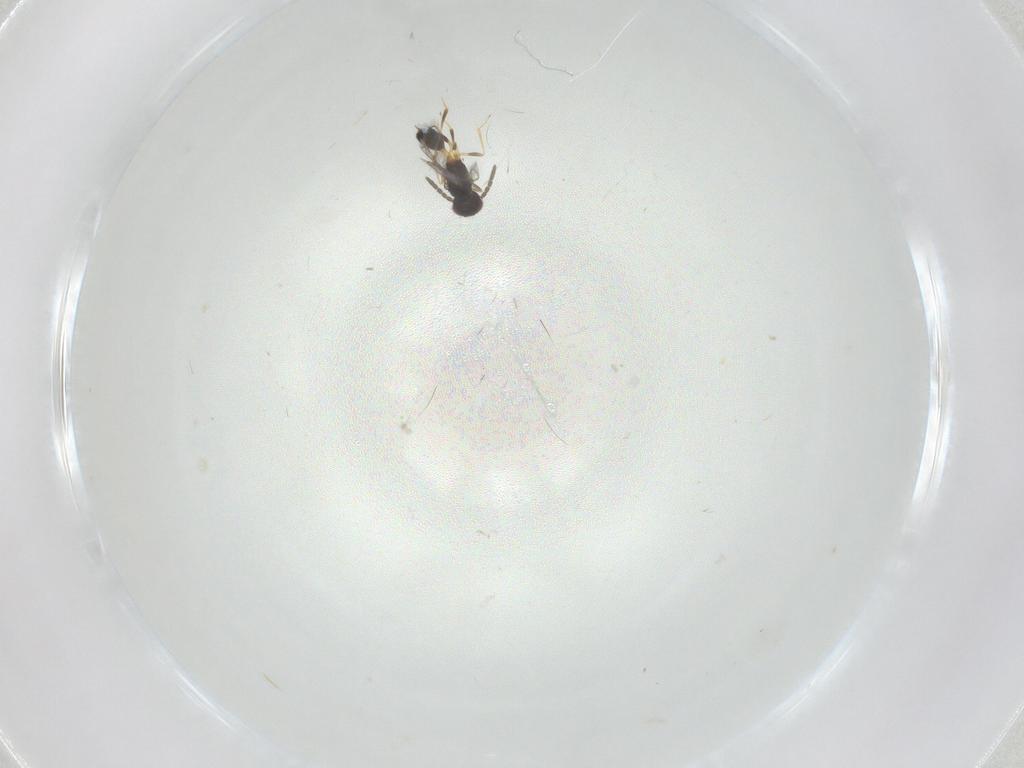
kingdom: Animalia
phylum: Arthropoda
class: Insecta
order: Hymenoptera
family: Pteromalidae
